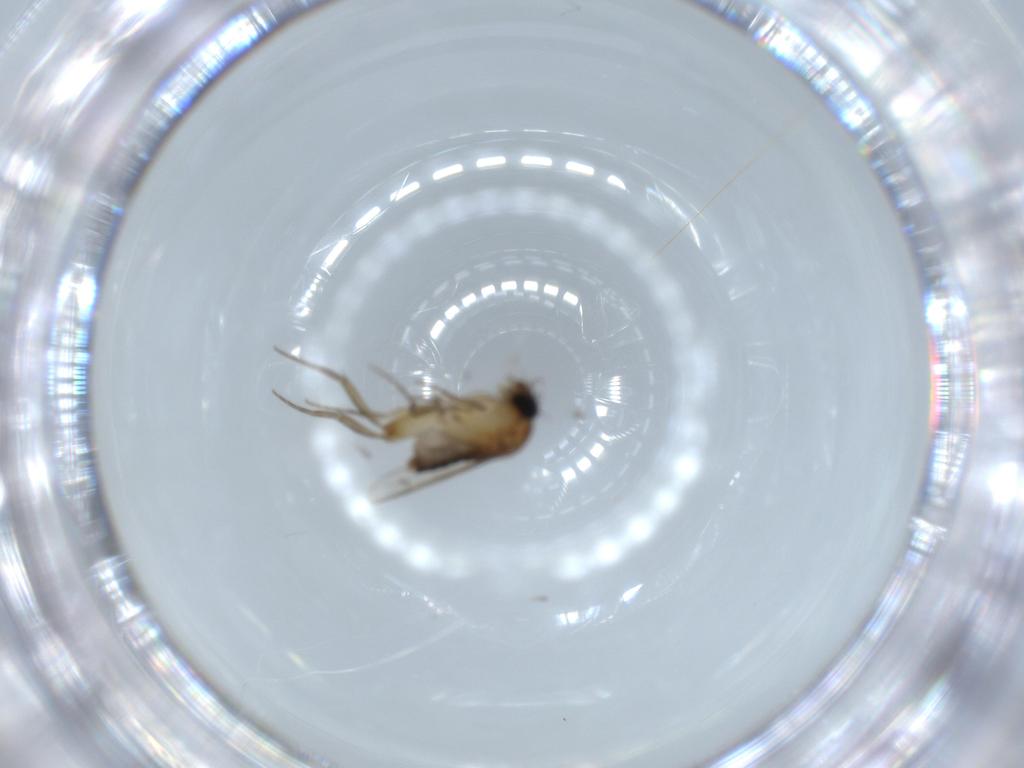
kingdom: Animalia
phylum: Arthropoda
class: Insecta
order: Diptera
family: Phoridae
